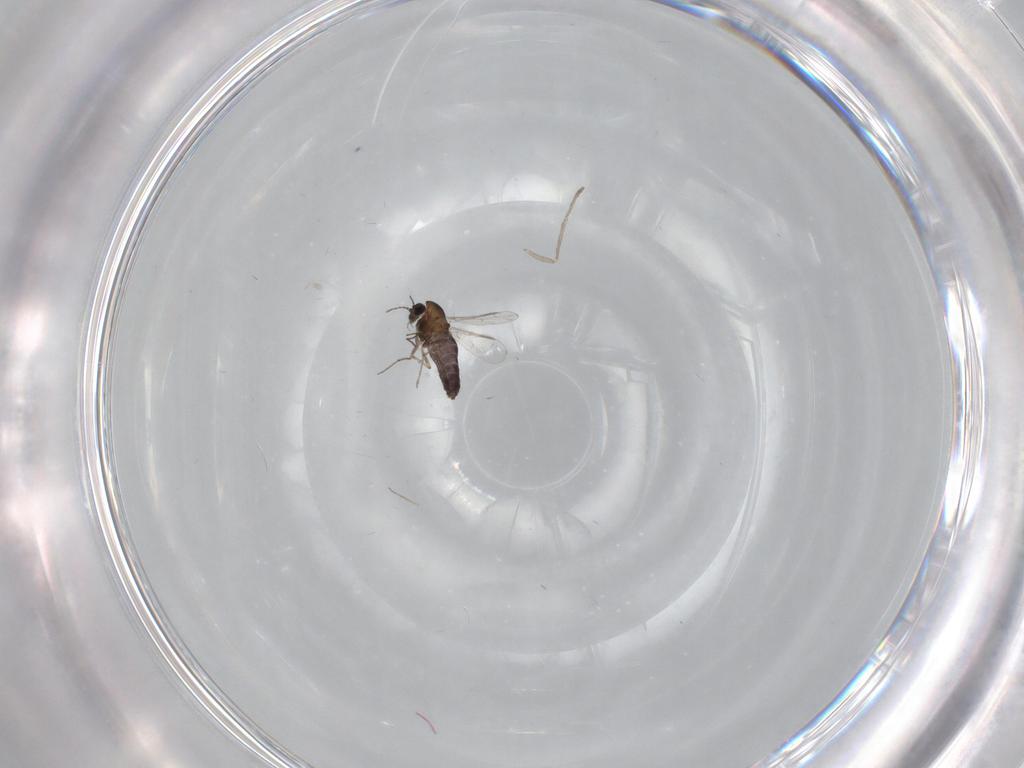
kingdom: Animalia
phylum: Arthropoda
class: Insecta
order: Diptera
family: Chironomidae
